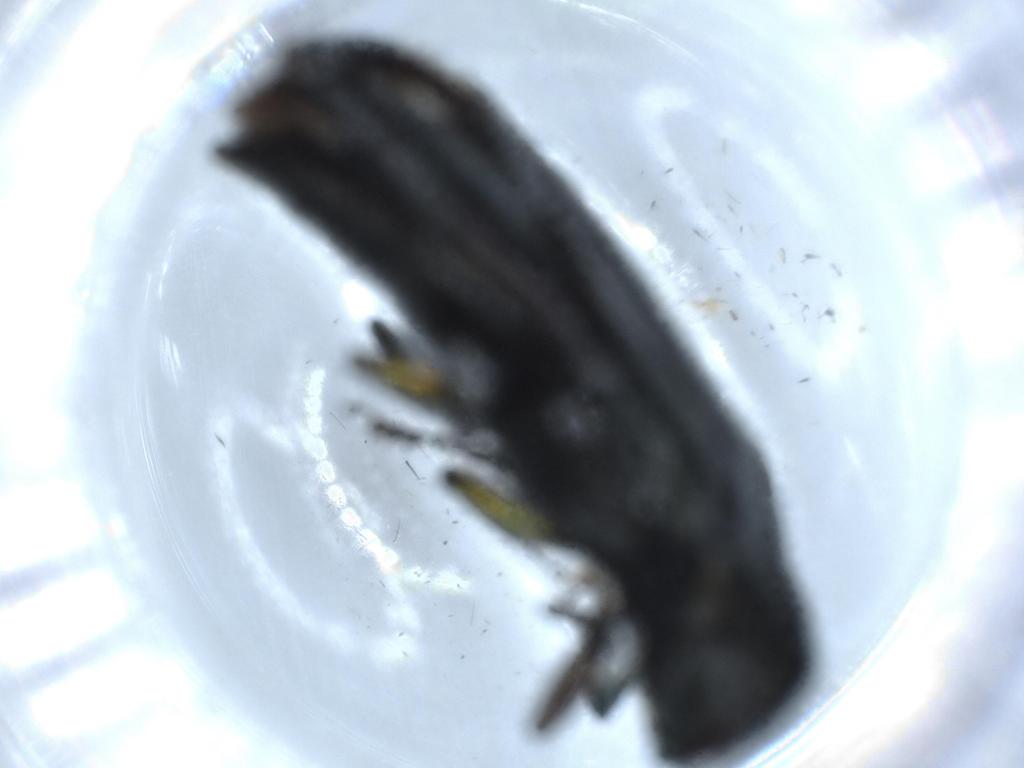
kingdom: Animalia
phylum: Arthropoda
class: Insecta
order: Coleoptera
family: Cerambycidae
